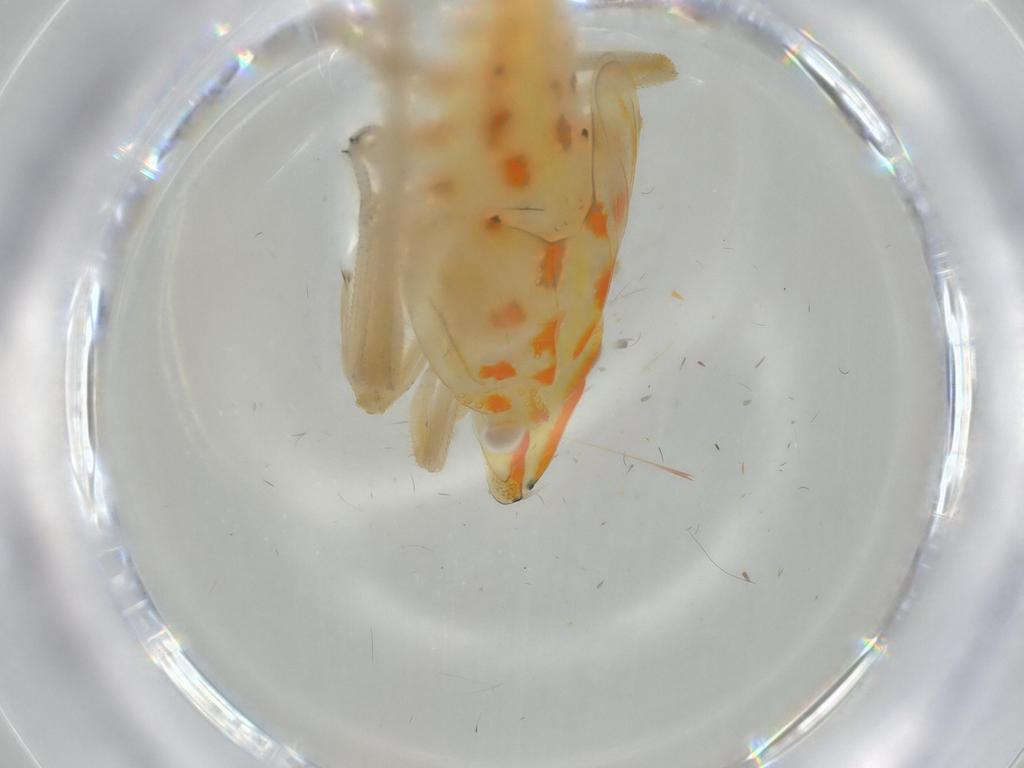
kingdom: Animalia
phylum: Arthropoda
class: Insecta
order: Hemiptera
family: Tropiduchidae
